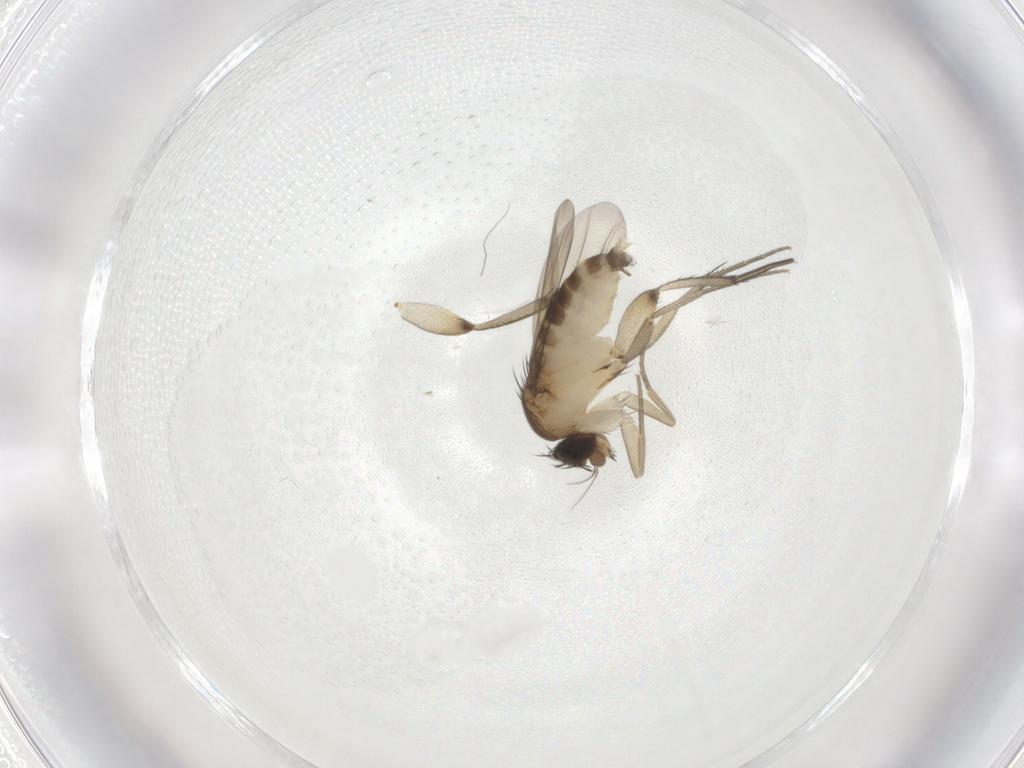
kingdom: Animalia
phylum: Arthropoda
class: Insecta
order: Diptera
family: Phoridae
